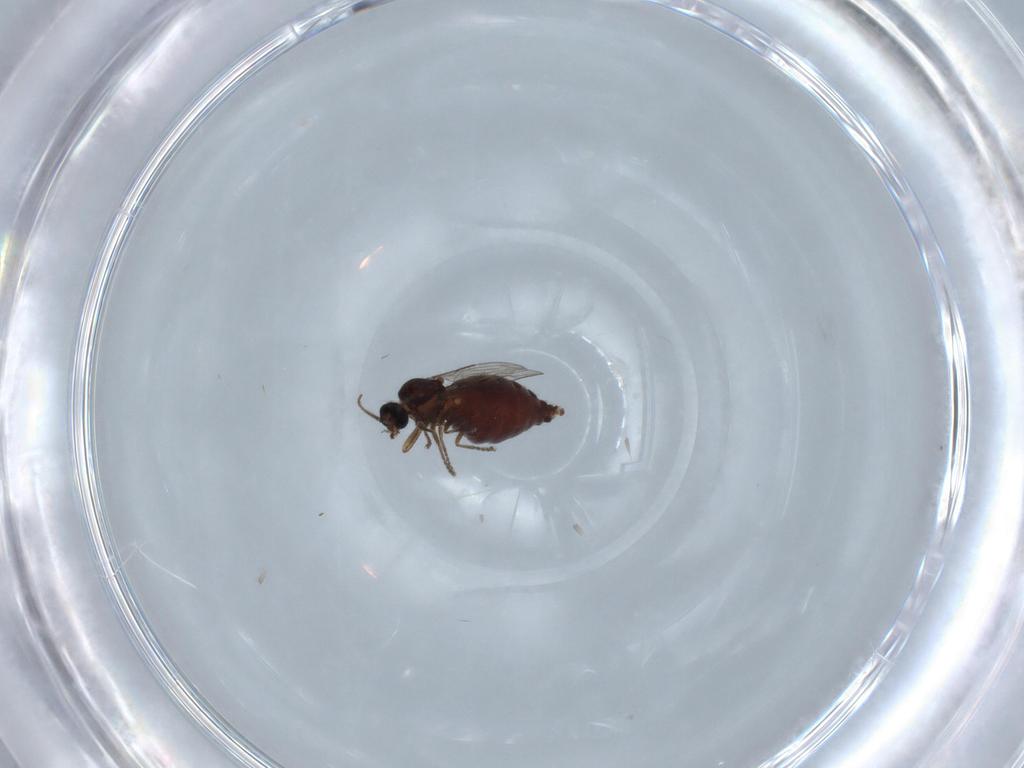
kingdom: Animalia
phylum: Arthropoda
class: Insecta
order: Diptera
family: Ceratopogonidae
